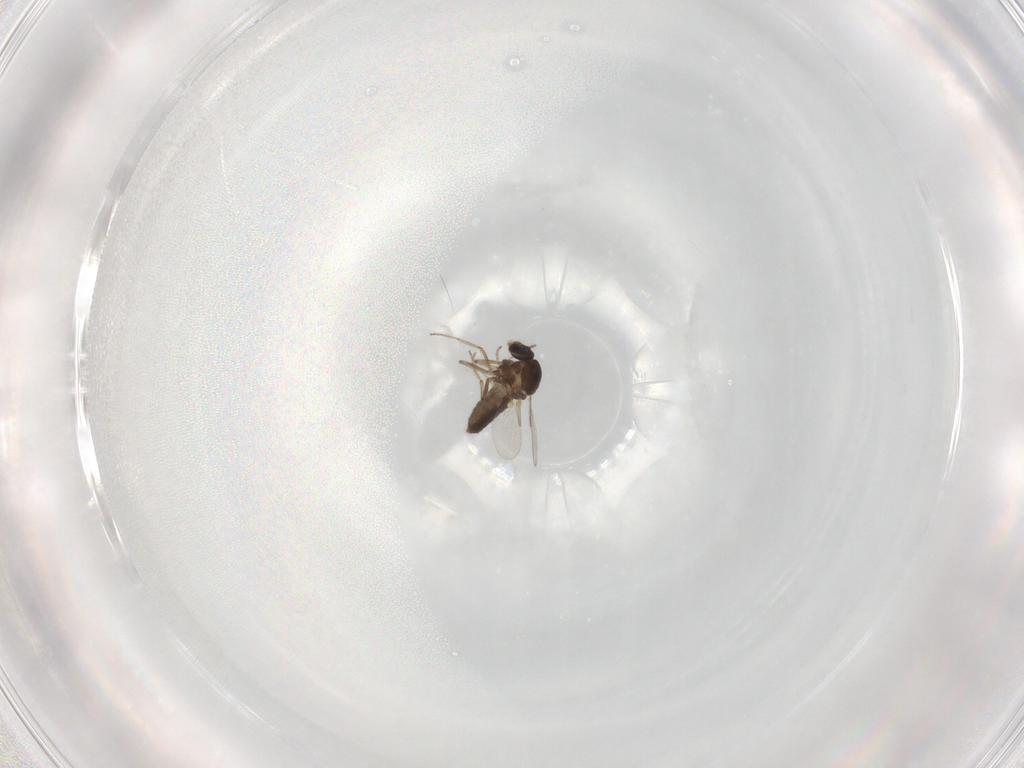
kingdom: Animalia
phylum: Arthropoda
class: Insecta
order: Diptera
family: Ceratopogonidae
